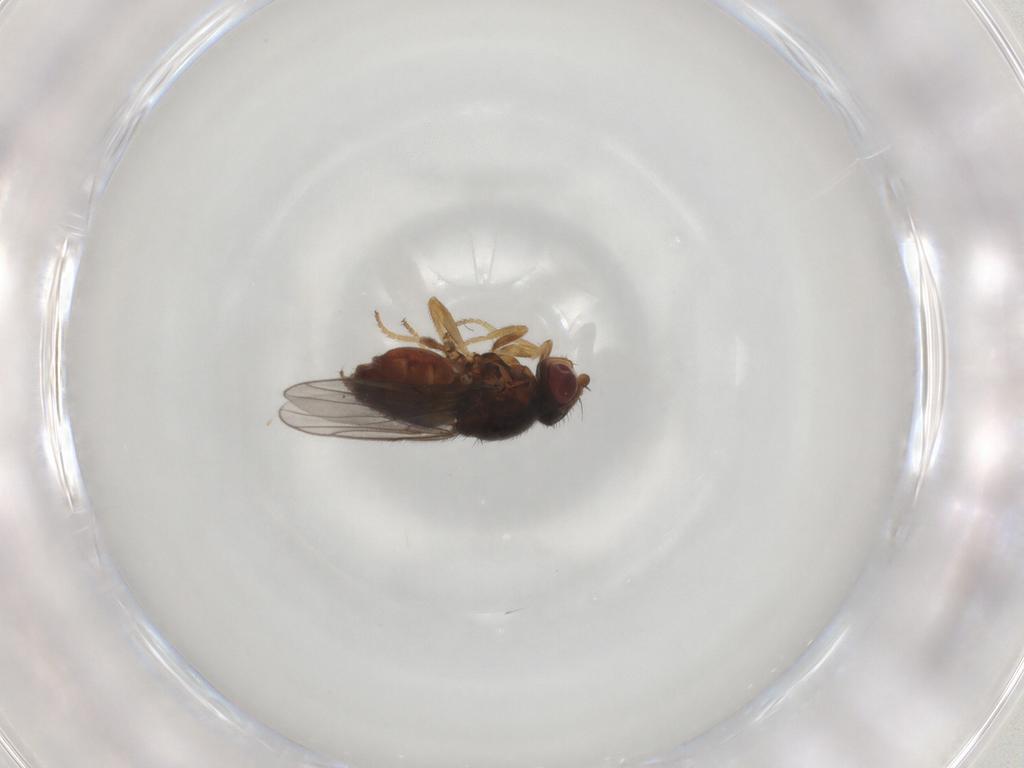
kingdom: Animalia
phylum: Arthropoda
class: Insecta
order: Diptera
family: Chloropidae
